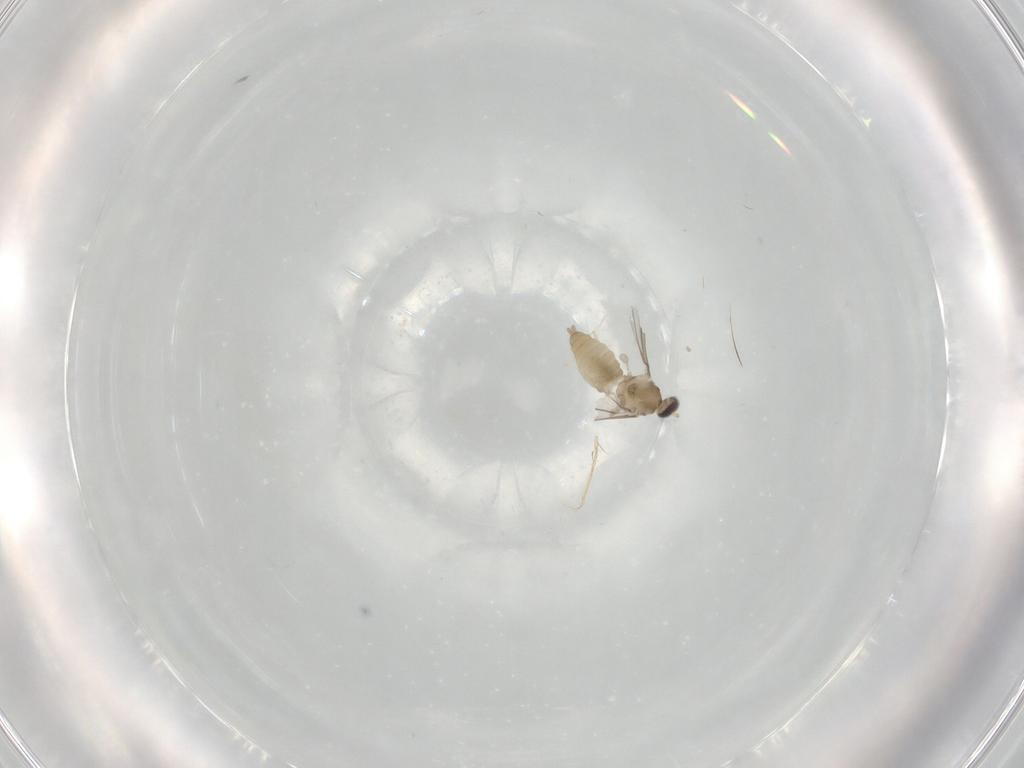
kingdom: Animalia
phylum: Arthropoda
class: Insecta
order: Diptera
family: Cecidomyiidae
